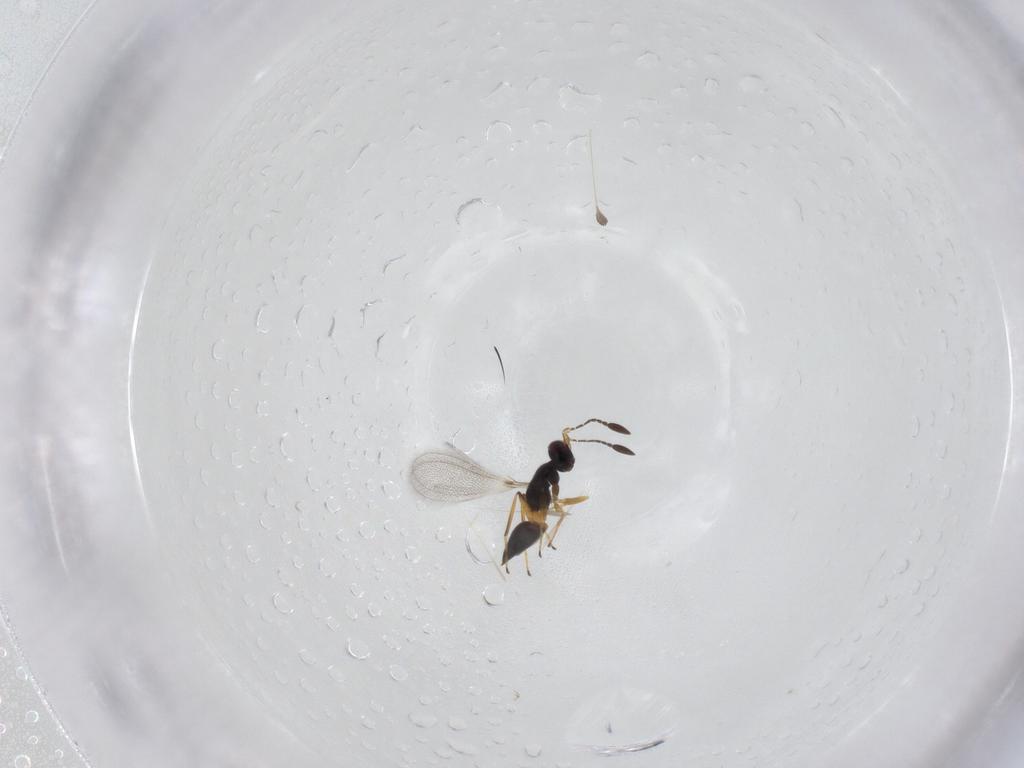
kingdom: Animalia
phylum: Arthropoda
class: Insecta
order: Hymenoptera
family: Mymaridae
